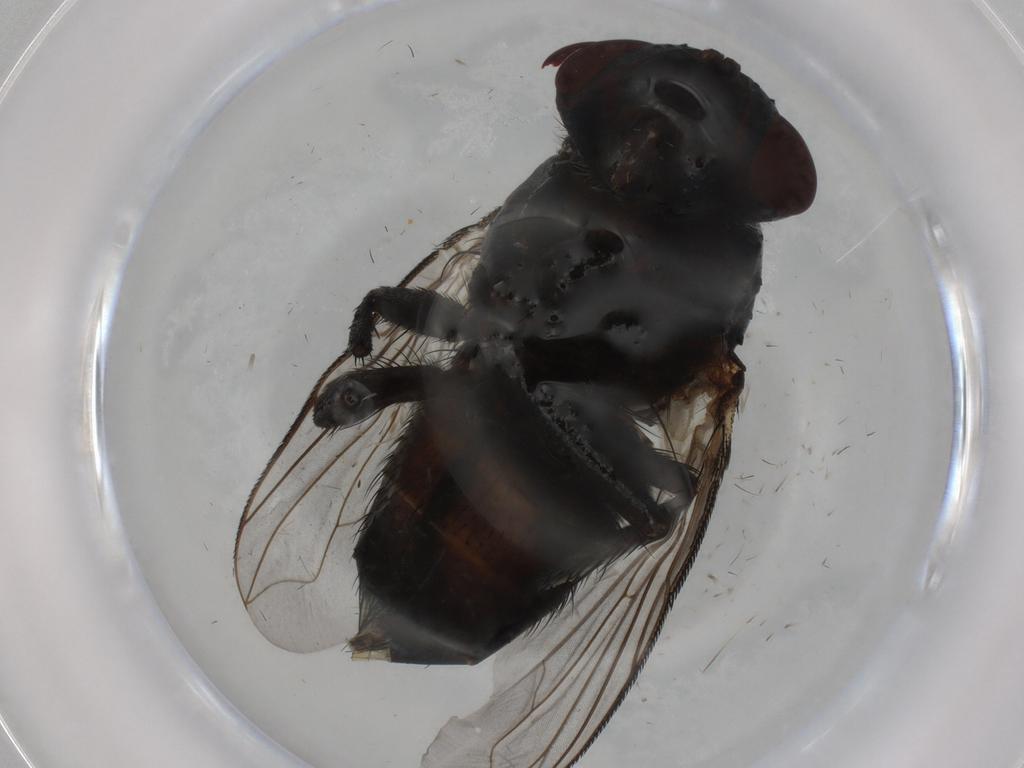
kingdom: Animalia
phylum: Arthropoda
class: Insecta
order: Diptera
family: Tachinidae
